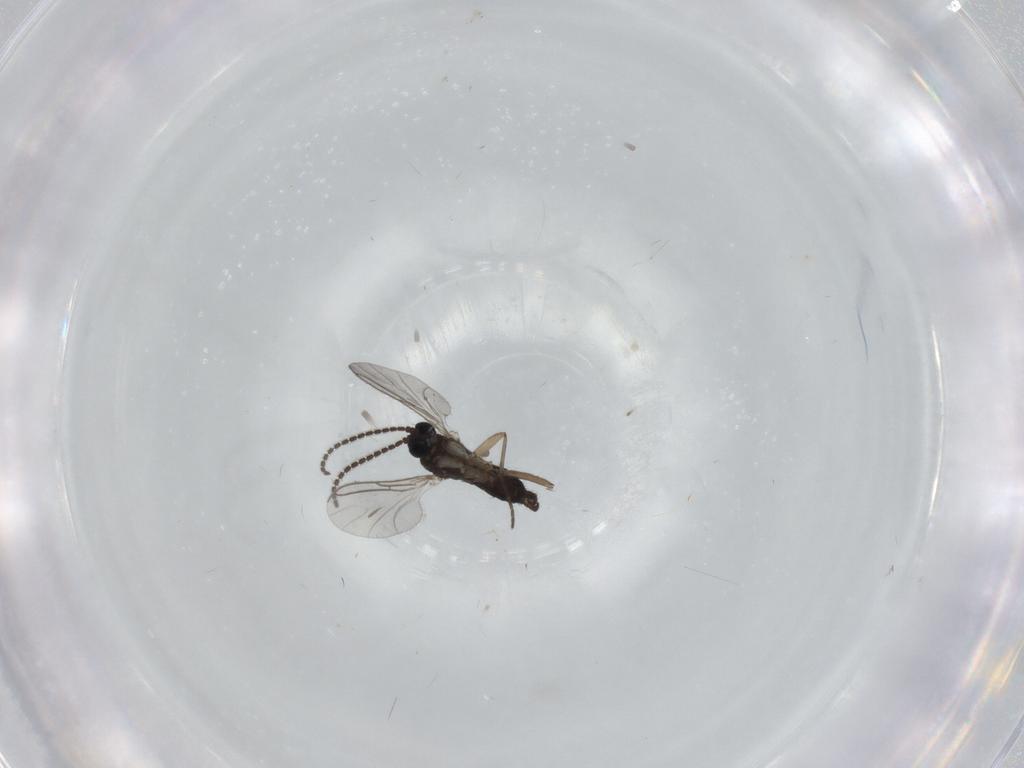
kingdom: Animalia
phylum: Arthropoda
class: Insecta
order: Diptera
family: Sciaridae
